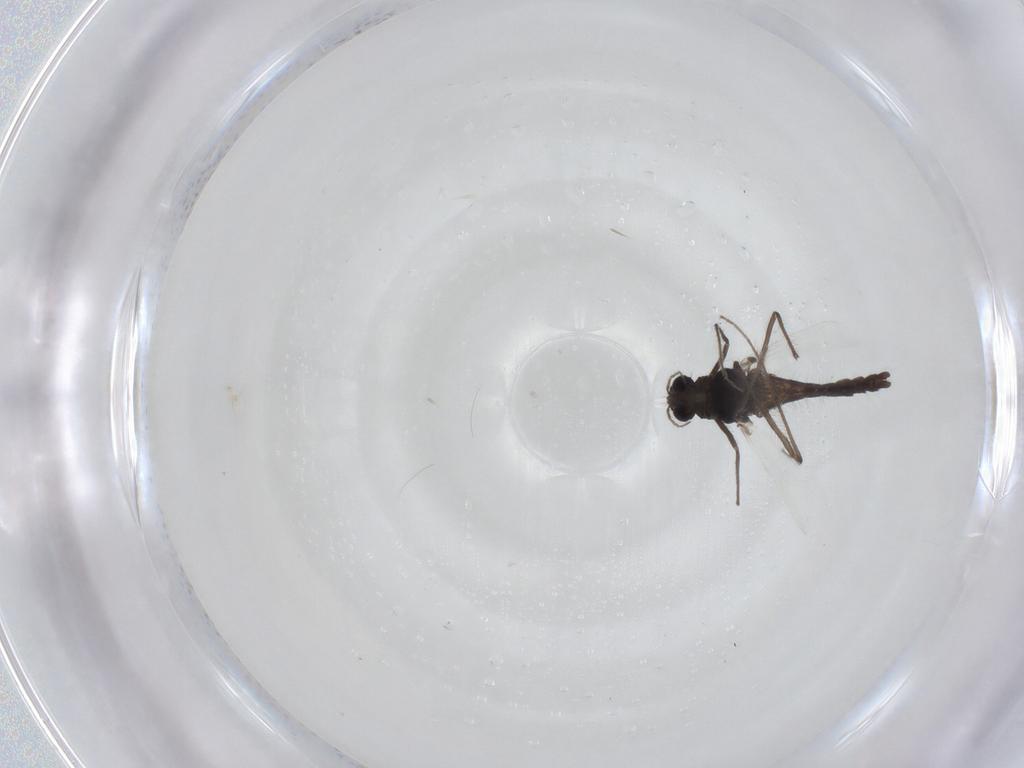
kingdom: Animalia
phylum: Arthropoda
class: Insecta
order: Diptera
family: Chironomidae
